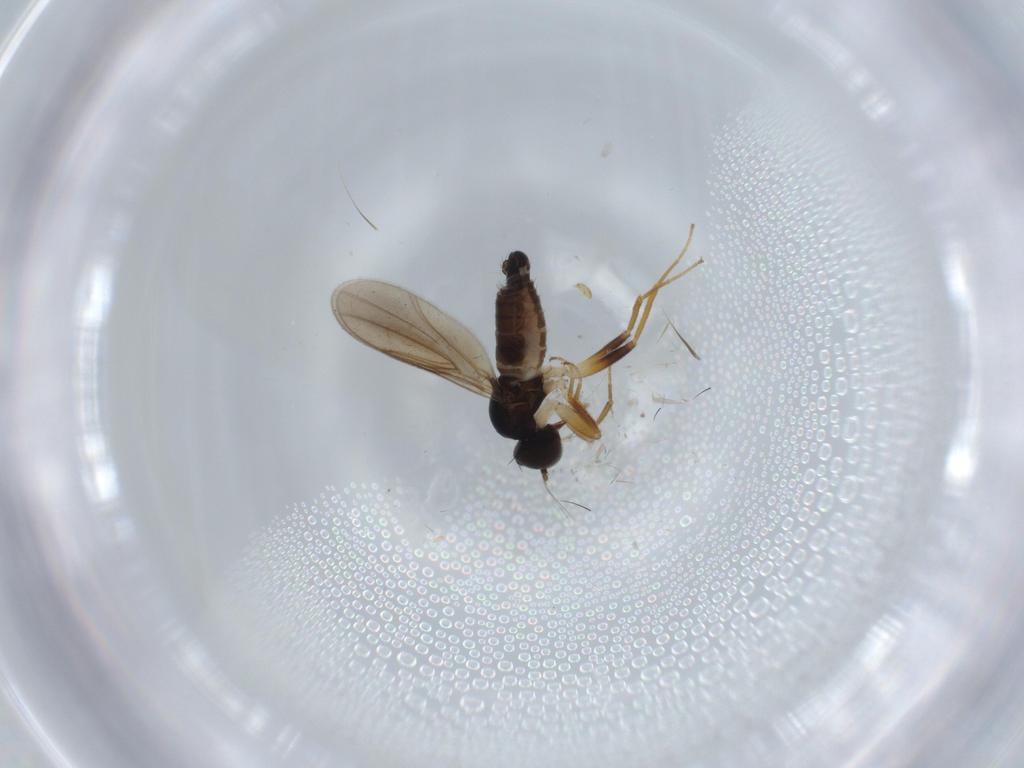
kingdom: Animalia
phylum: Arthropoda
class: Insecta
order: Diptera
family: Hybotidae
